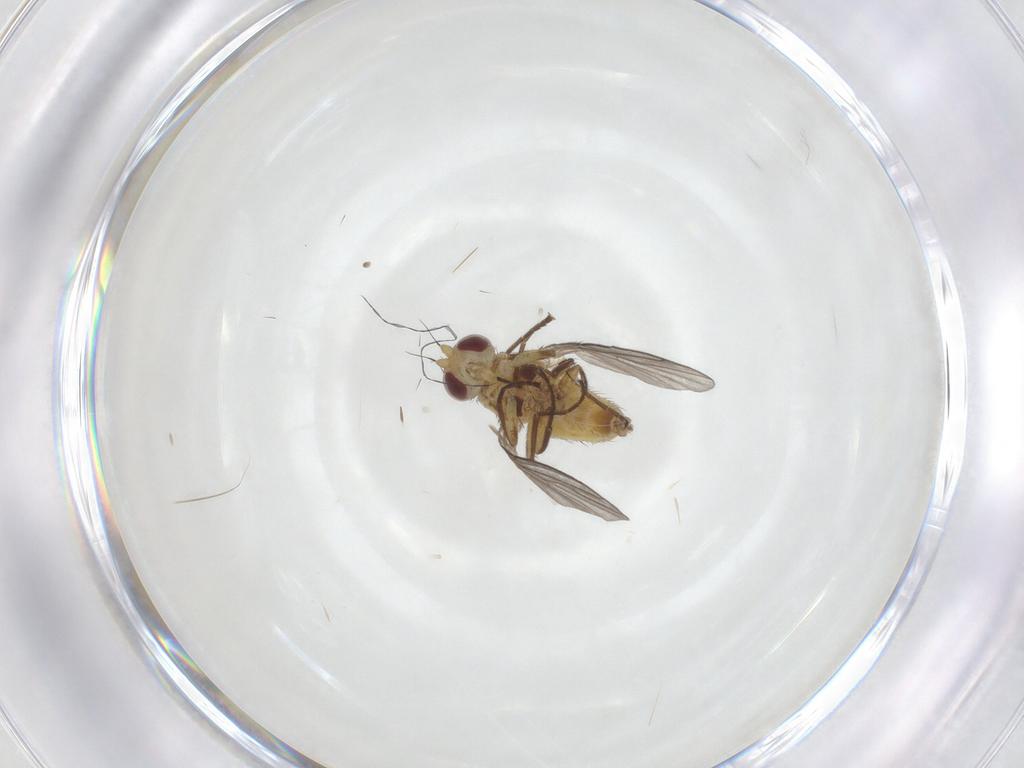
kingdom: Animalia
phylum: Arthropoda
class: Insecta
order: Diptera
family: Agromyzidae
